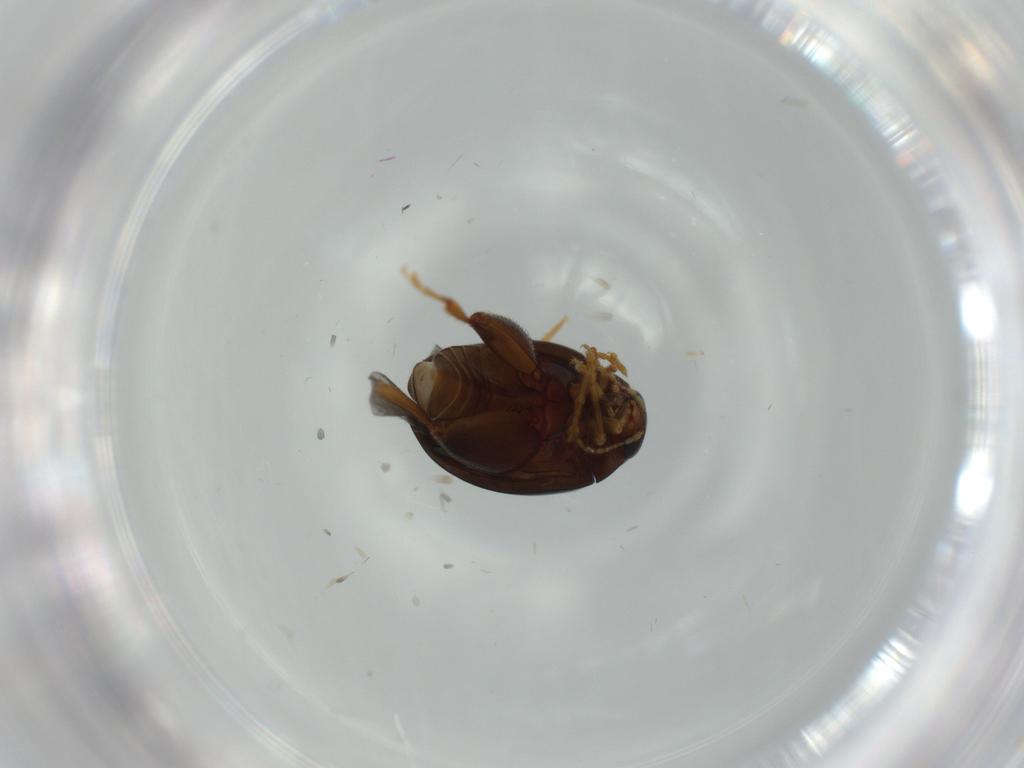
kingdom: Animalia
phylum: Arthropoda
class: Insecta
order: Coleoptera
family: Chrysomelidae
